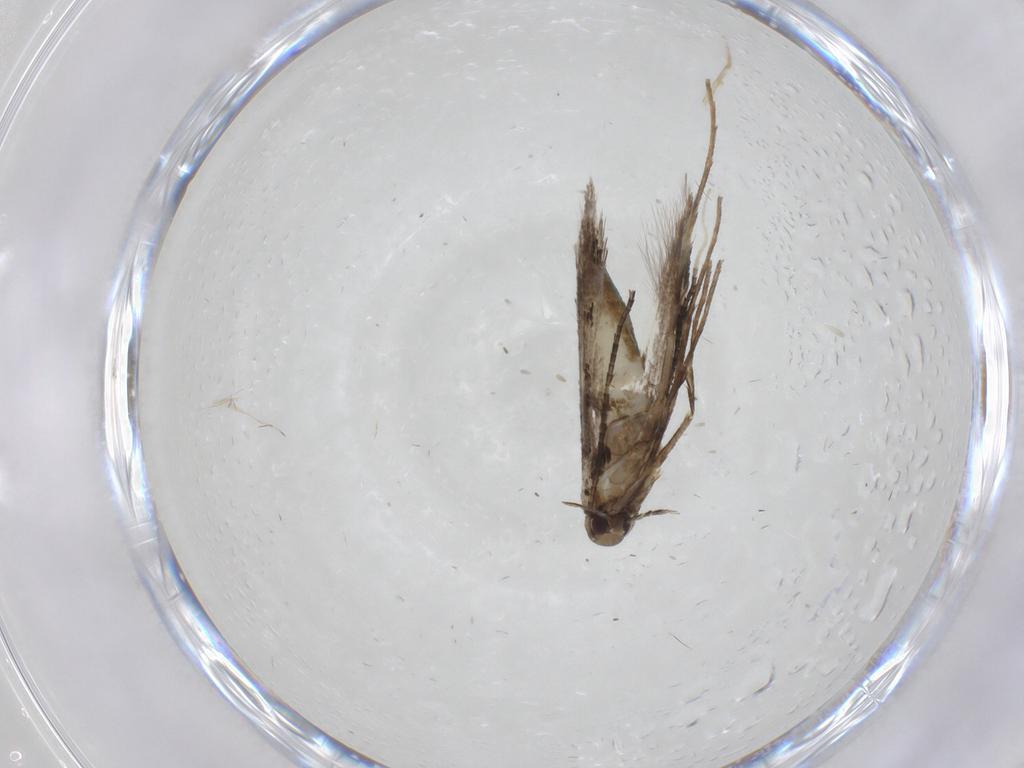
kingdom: Animalia
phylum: Arthropoda
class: Insecta
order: Lepidoptera
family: Erebidae
